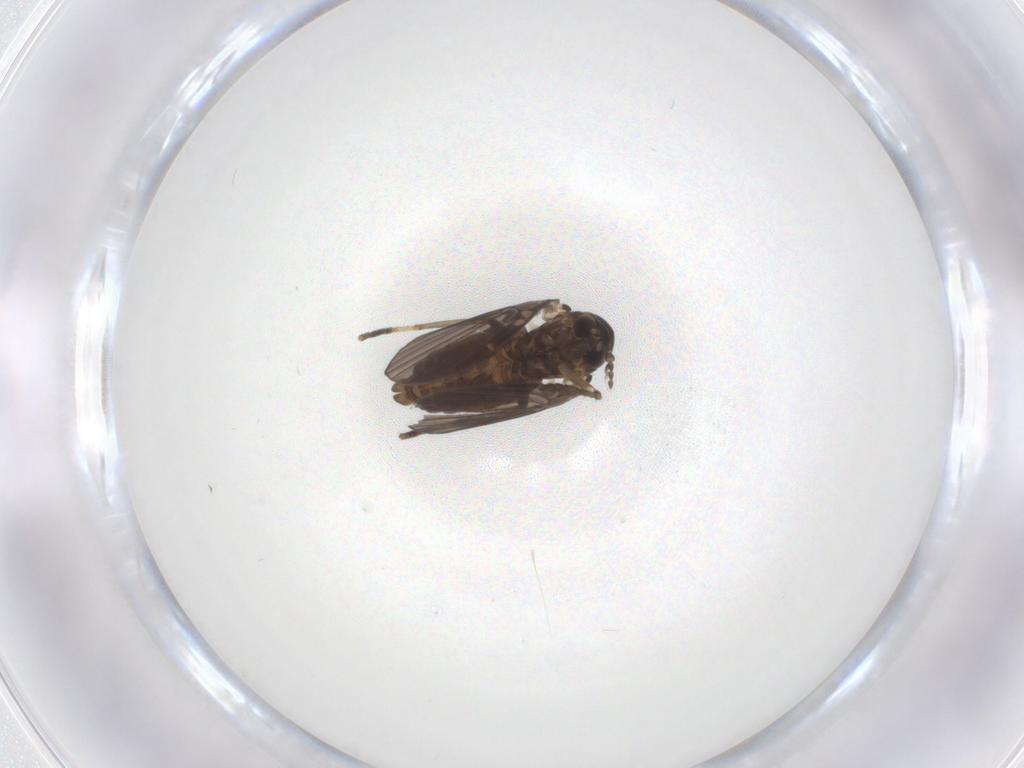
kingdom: Animalia
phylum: Arthropoda
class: Insecta
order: Diptera
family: Psychodidae
